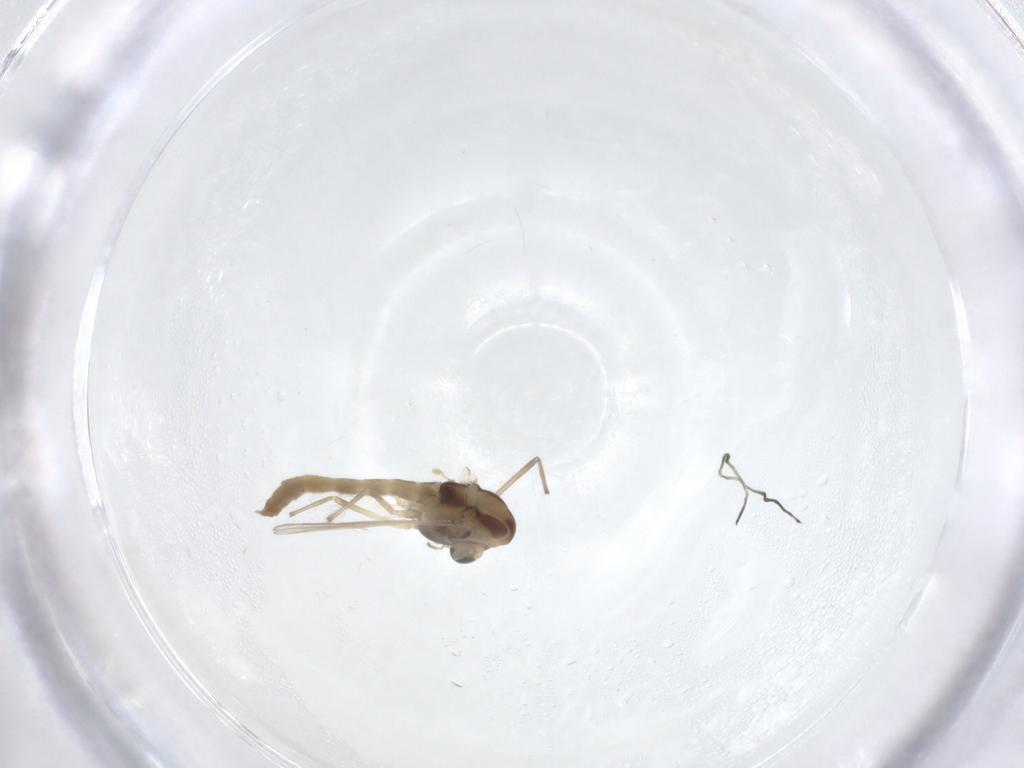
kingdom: Animalia
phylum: Arthropoda
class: Insecta
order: Diptera
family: Chironomidae
